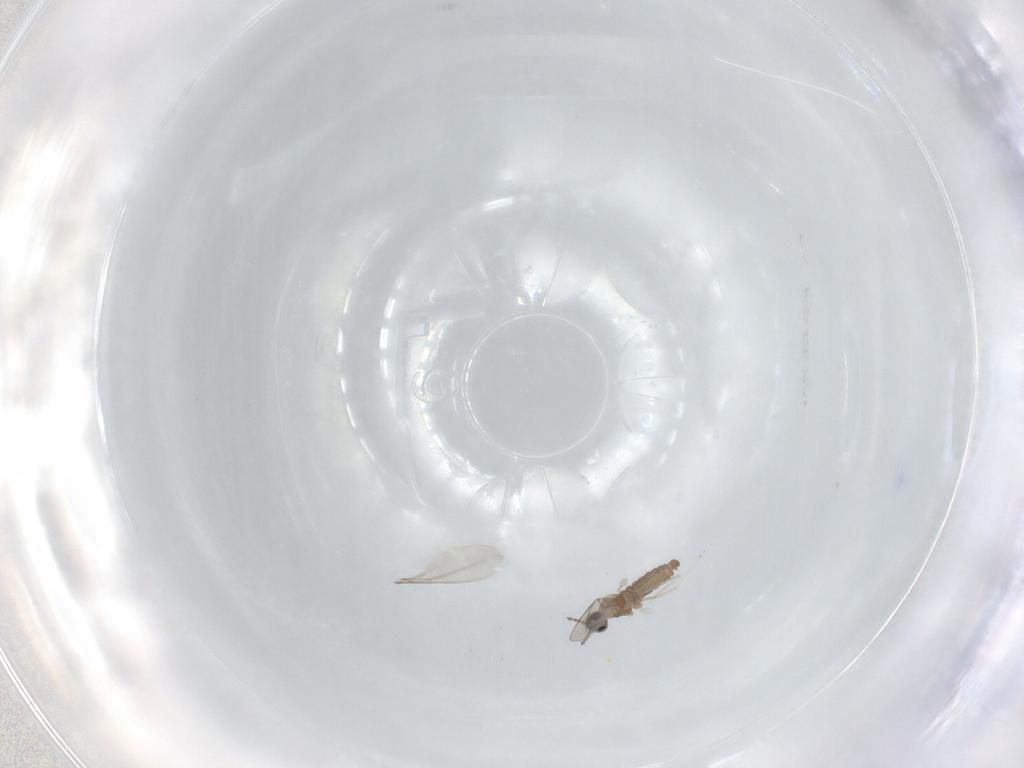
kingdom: Animalia
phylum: Arthropoda
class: Insecta
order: Diptera
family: Cecidomyiidae
